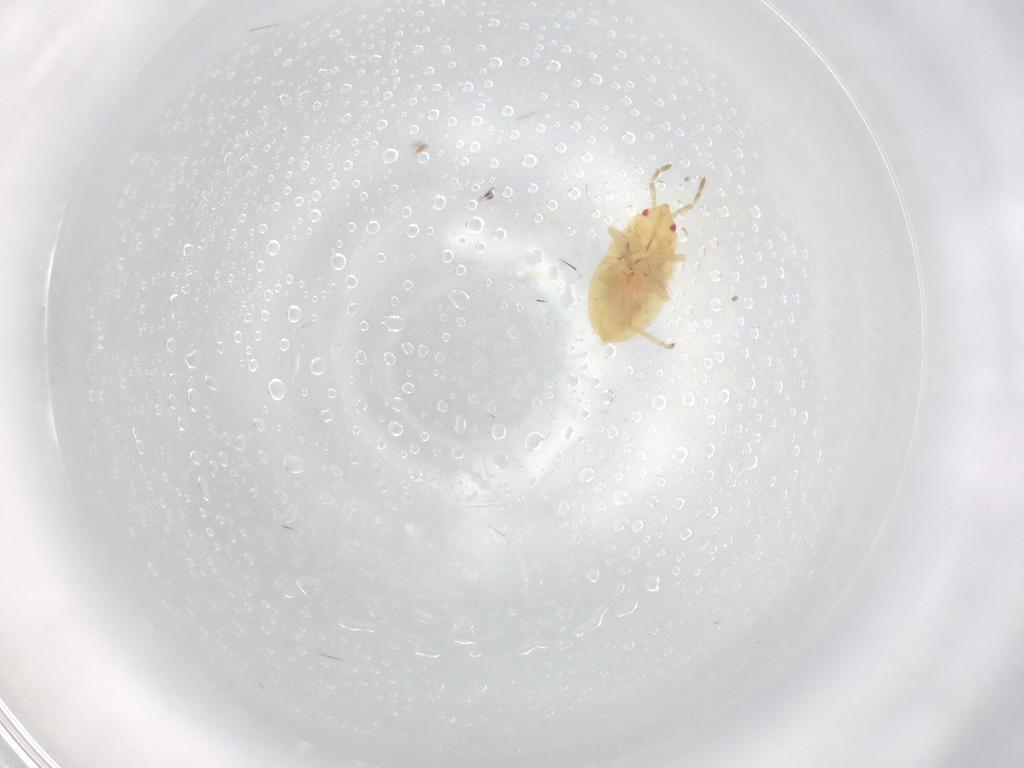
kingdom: Animalia
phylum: Arthropoda
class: Insecta
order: Hemiptera
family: Anthocoridae
